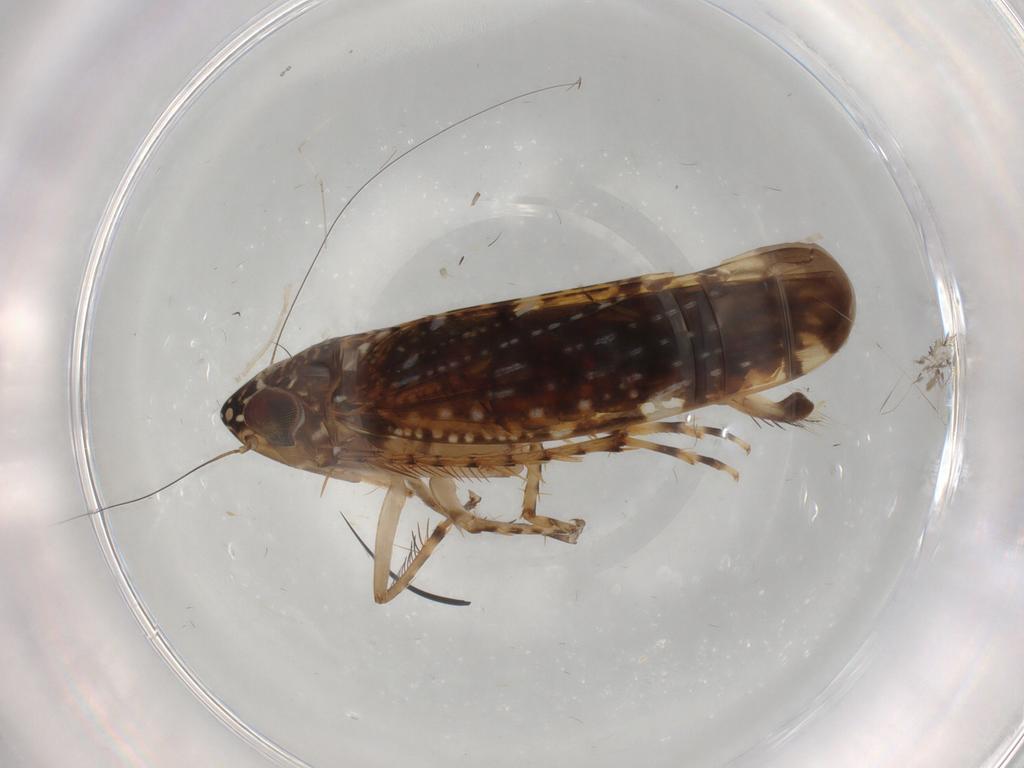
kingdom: Animalia
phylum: Arthropoda
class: Insecta
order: Hemiptera
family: Cicadellidae
